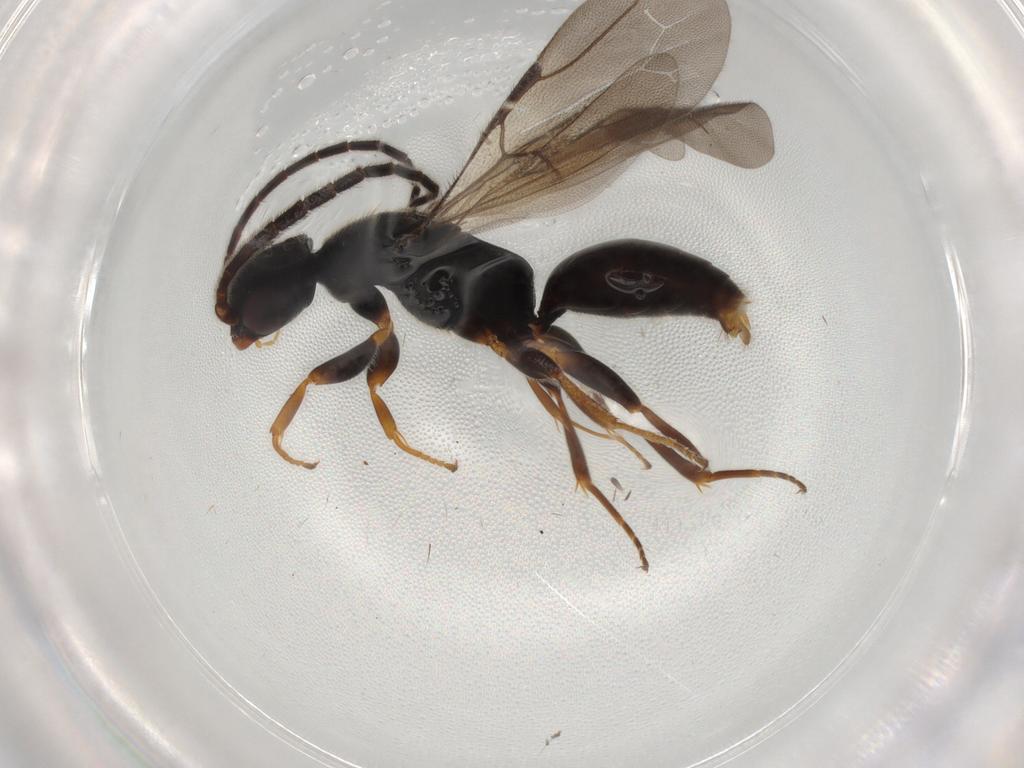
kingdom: Animalia
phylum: Arthropoda
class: Insecta
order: Hymenoptera
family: Bethylidae
